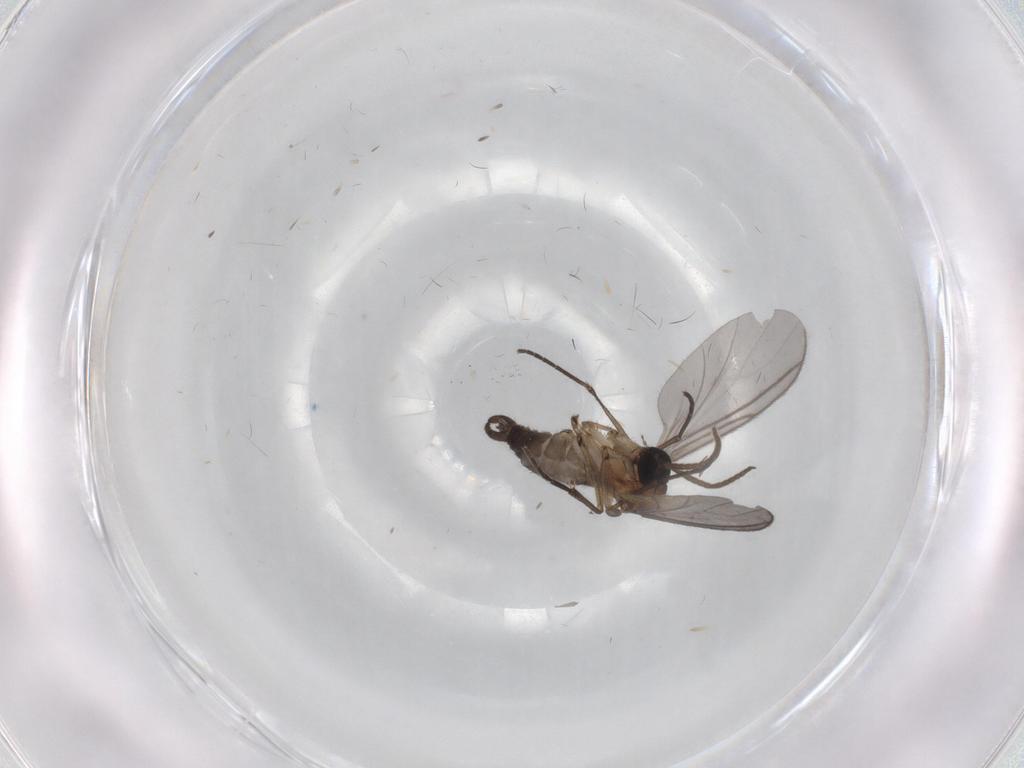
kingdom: Animalia
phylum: Arthropoda
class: Insecta
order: Diptera
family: Phoridae
